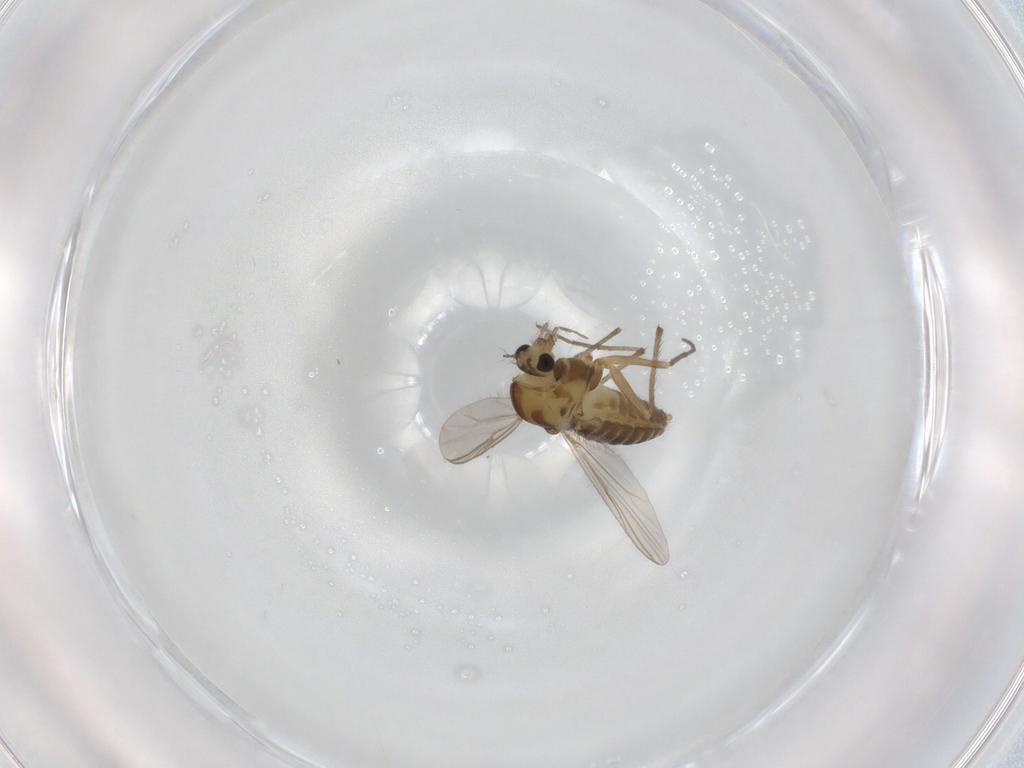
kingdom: Animalia
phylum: Arthropoda
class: Insecta
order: Diptera
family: Chironomidae
